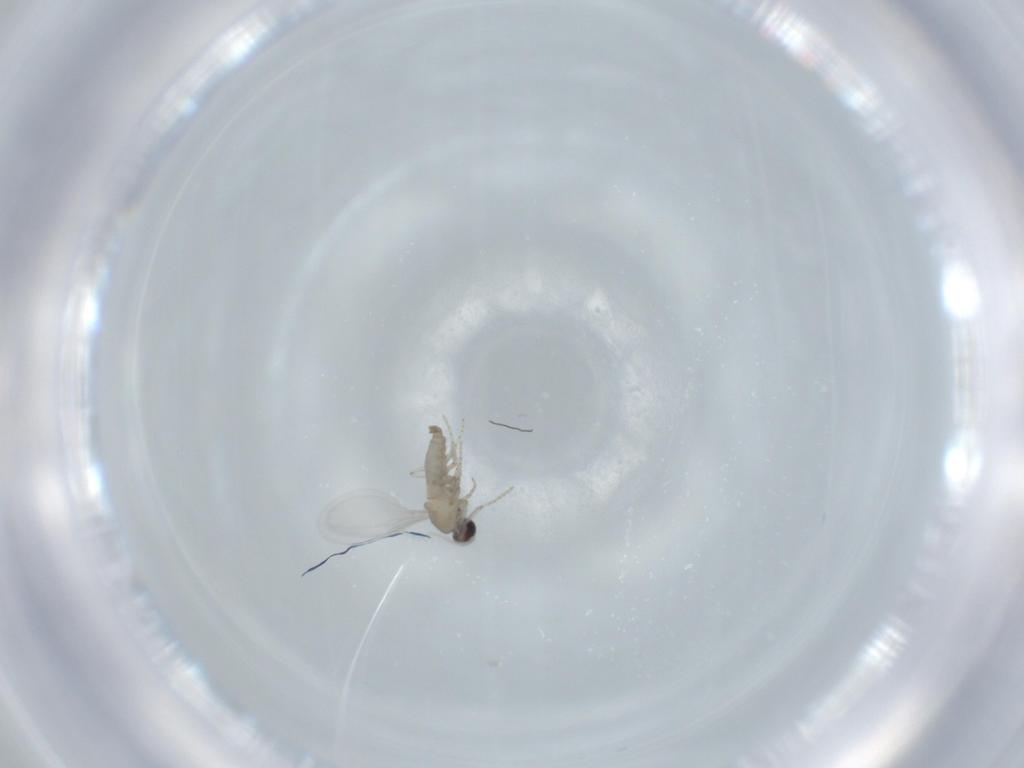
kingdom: Animalia
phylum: Arthropoda
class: Insecta
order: Diptera
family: Cecidomyiidae
